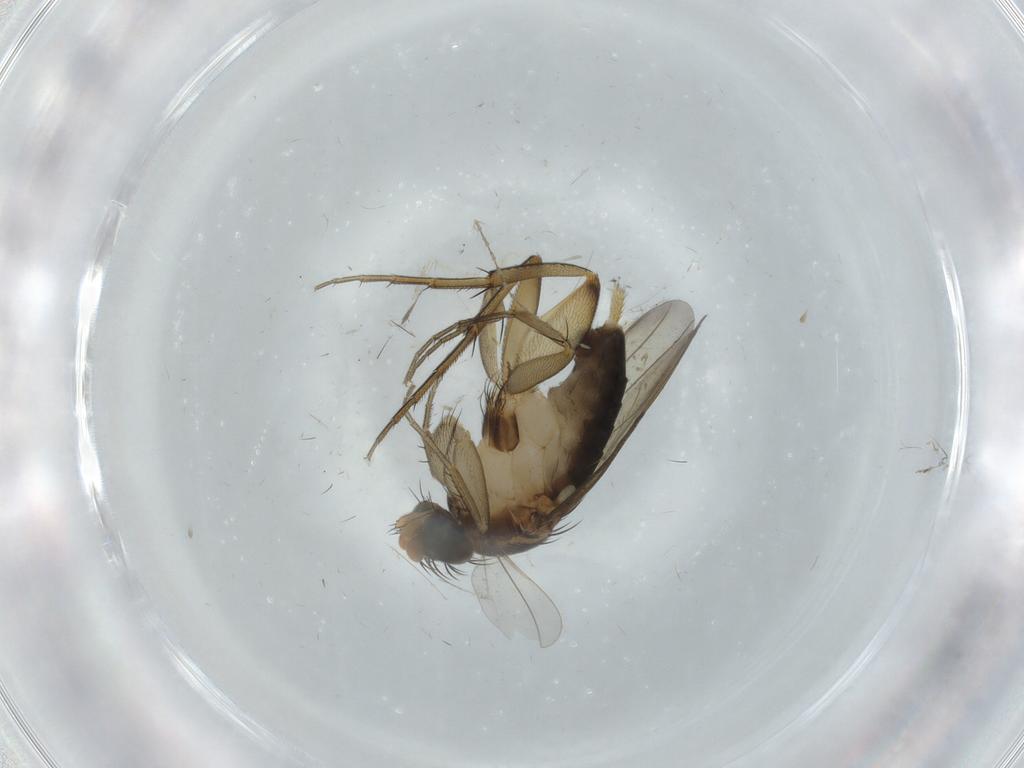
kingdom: Animalia
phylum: Arthropoda
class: Insecta
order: Diptera
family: Phoridae
